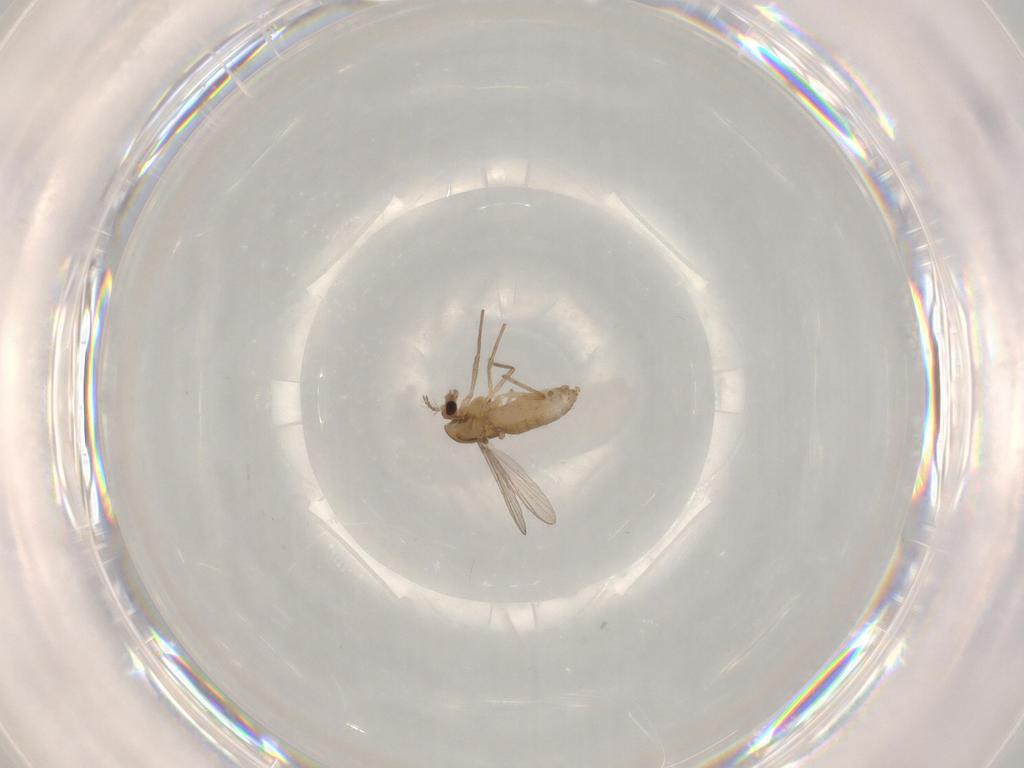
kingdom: Animalia
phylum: Arthropoda
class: Insecta
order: Diptera
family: Chironomidae
